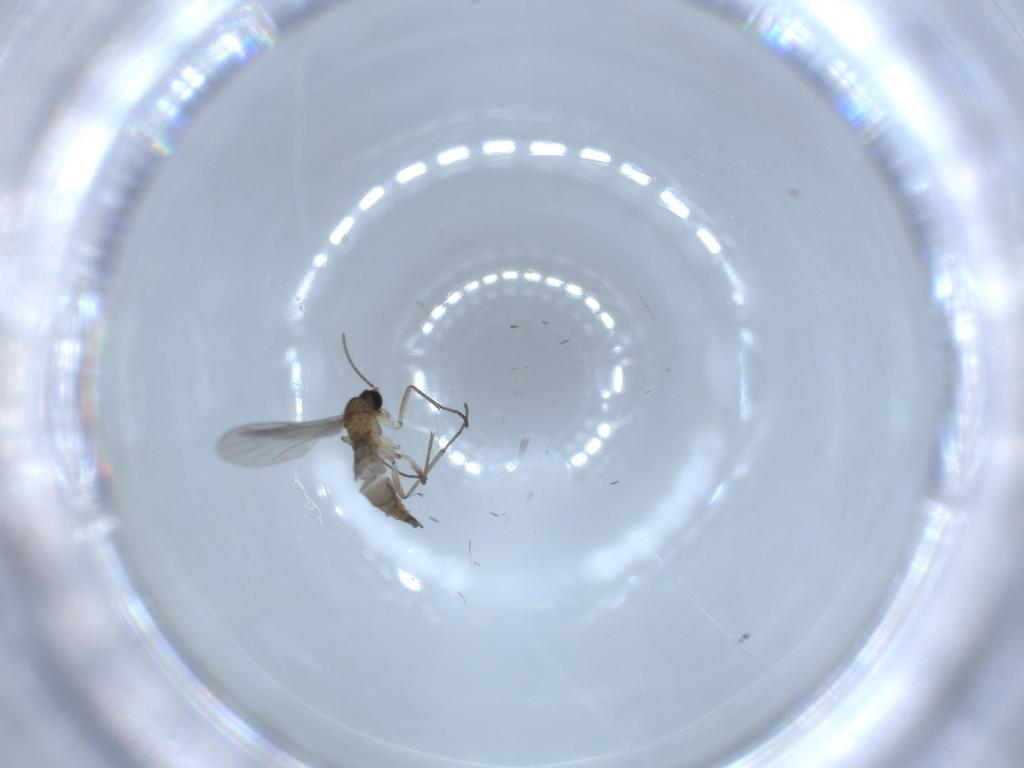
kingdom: Animalia
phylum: Arthropoda
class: Insecta
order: Diptera
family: Sciaridae
